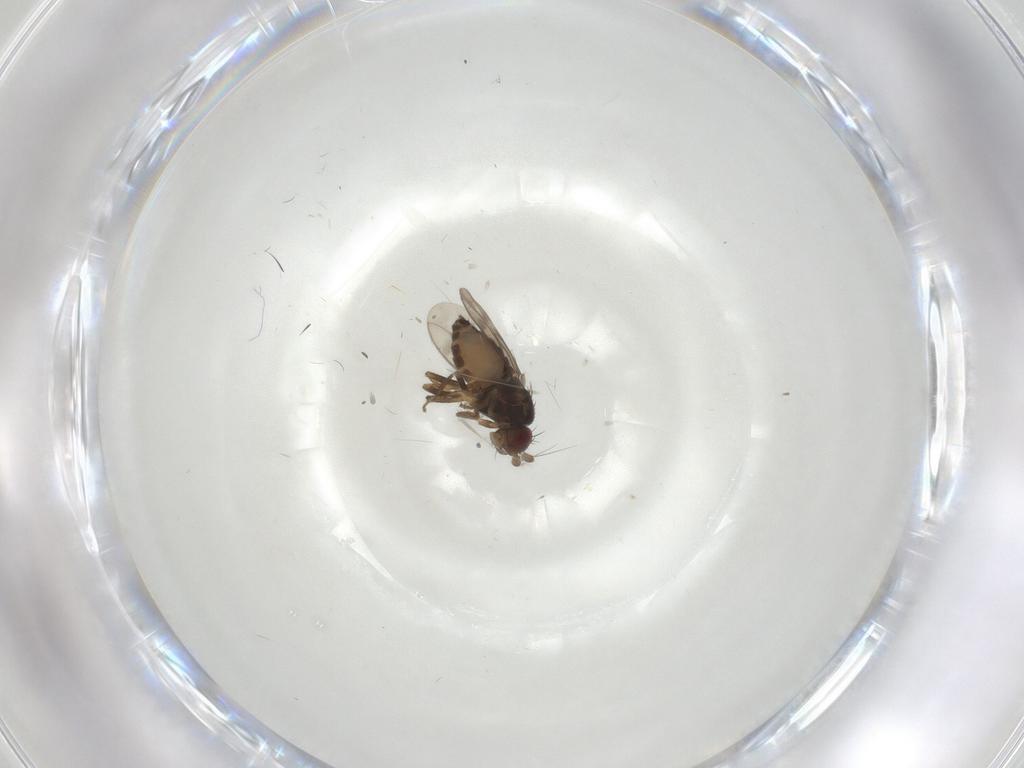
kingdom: Animalia
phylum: Arthropoda
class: Insecta
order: Diptera
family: Sphaeroceridae
